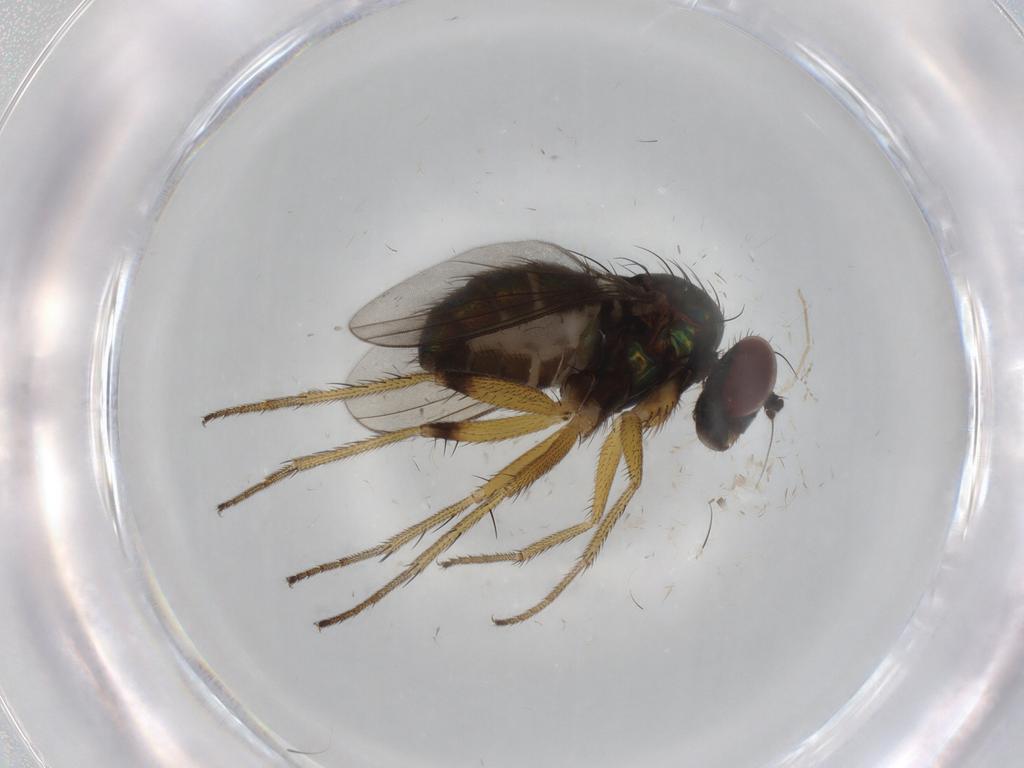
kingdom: Animalia
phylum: Arthropoda
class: Insecta
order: Diptera
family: Dolichopodidae
